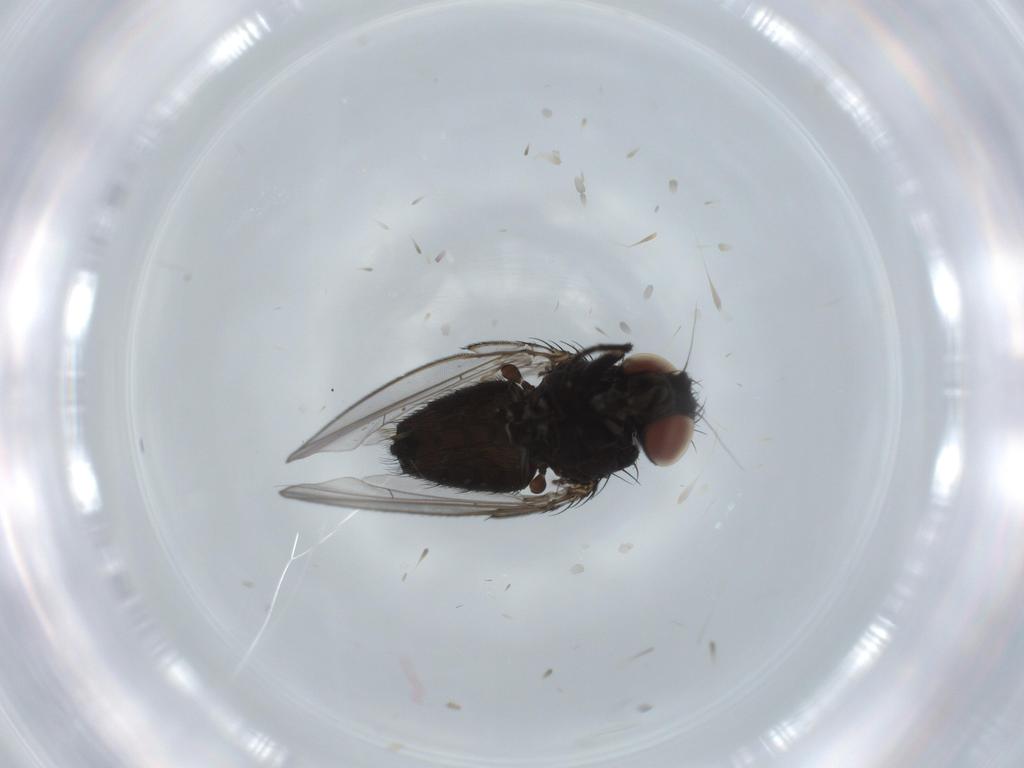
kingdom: Animalia
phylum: Arthropoda
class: Insecta
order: Diptera
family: Milichiidae
